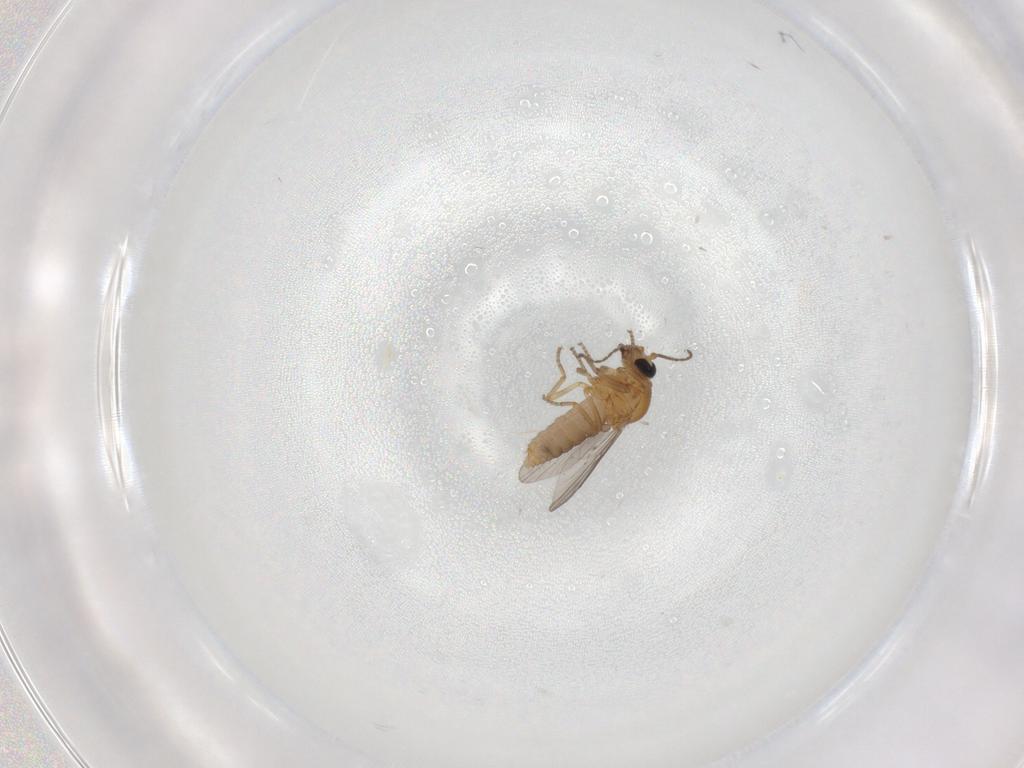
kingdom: Animalia
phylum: Arthropoda
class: Insecta
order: Diptera
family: Ceratopogonidae
